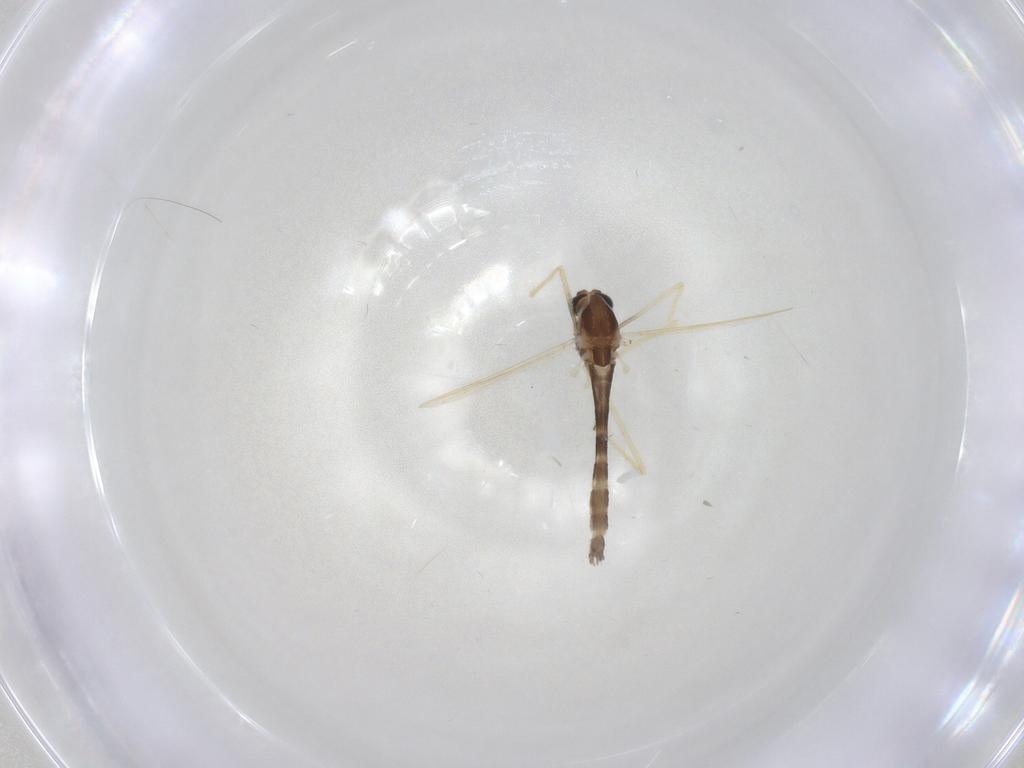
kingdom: Animalia
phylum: Arthropoda
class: Insecta
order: Diptera
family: Chironomidae
